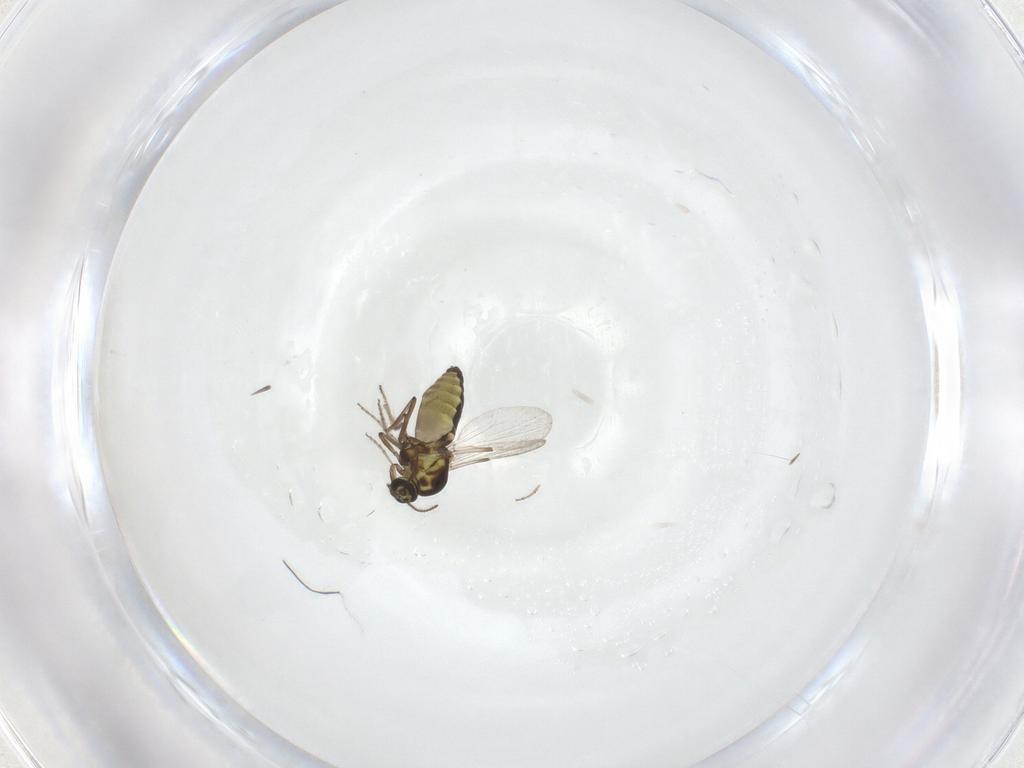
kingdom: Animalia
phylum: Arthropoda
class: Insecta
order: Diptera
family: Ceratopogonidae
